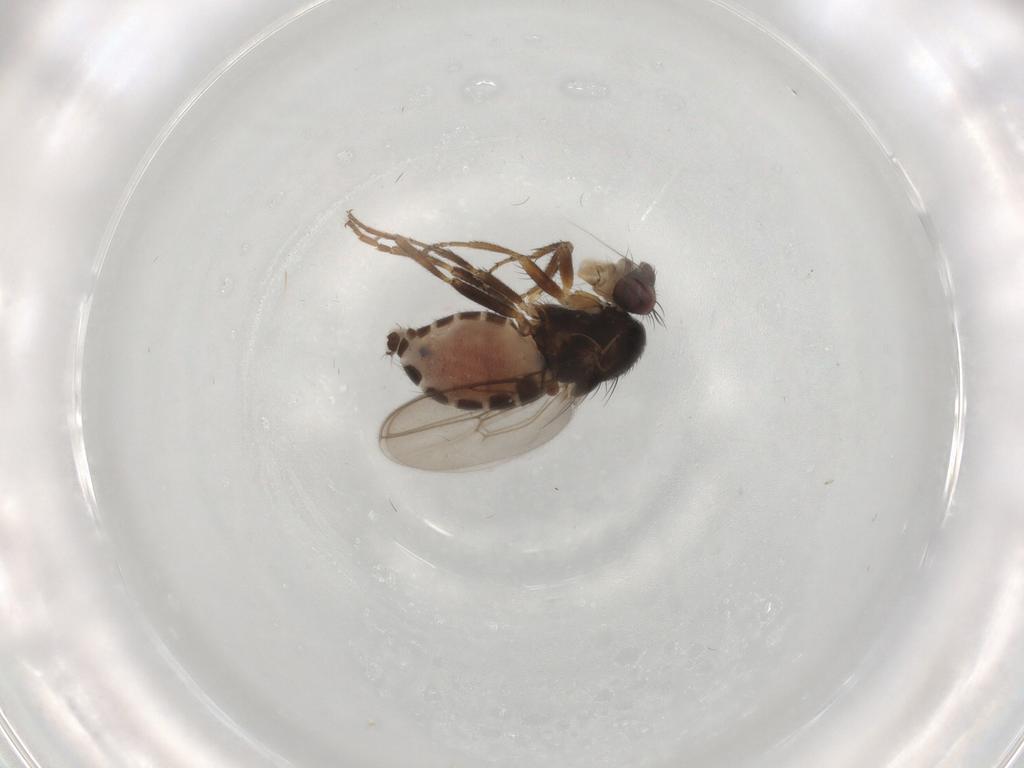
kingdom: Animalia
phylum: Arthropoda
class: Insecta
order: Diptera
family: Sphaeroceridae
